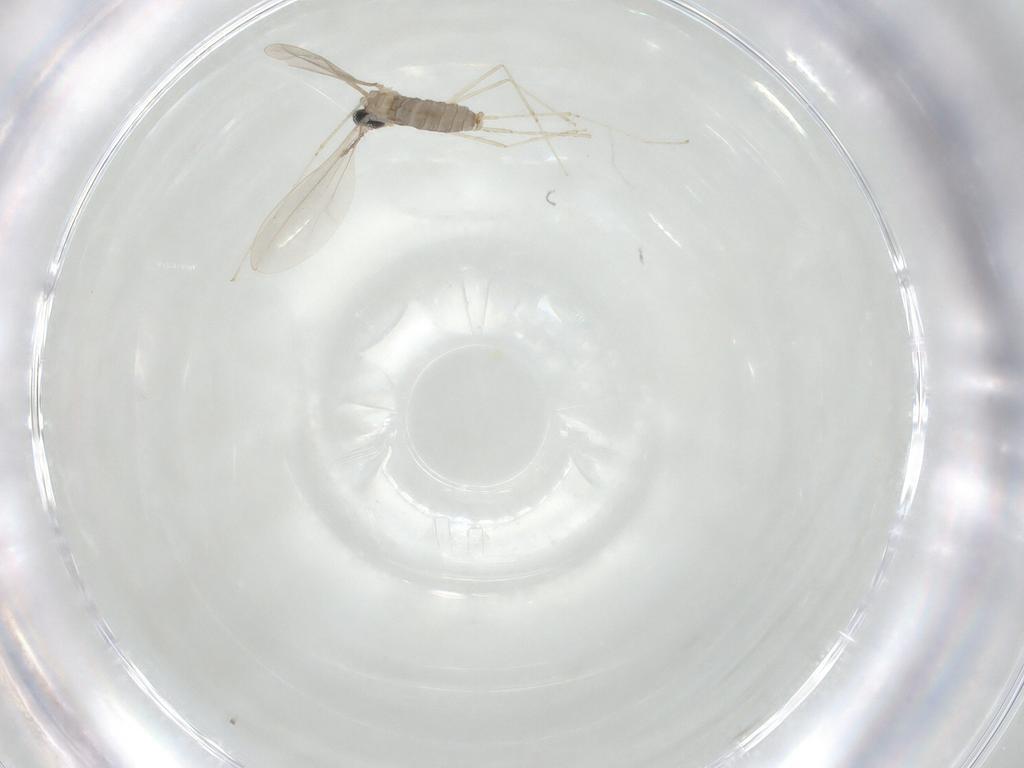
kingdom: Animalia
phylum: Arthropoda
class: Insecta
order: Diptera
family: Cecidomyiidae
